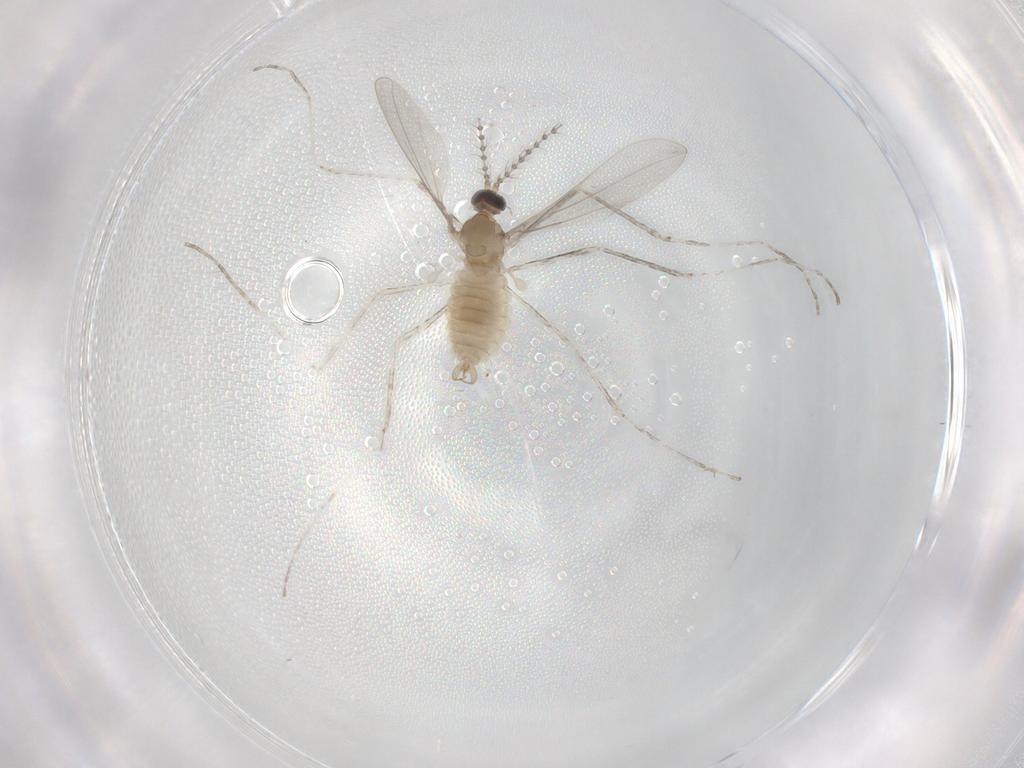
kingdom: Animalia
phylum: Arthropoda
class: Insecta
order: Diptera
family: Cecidomyiidae
